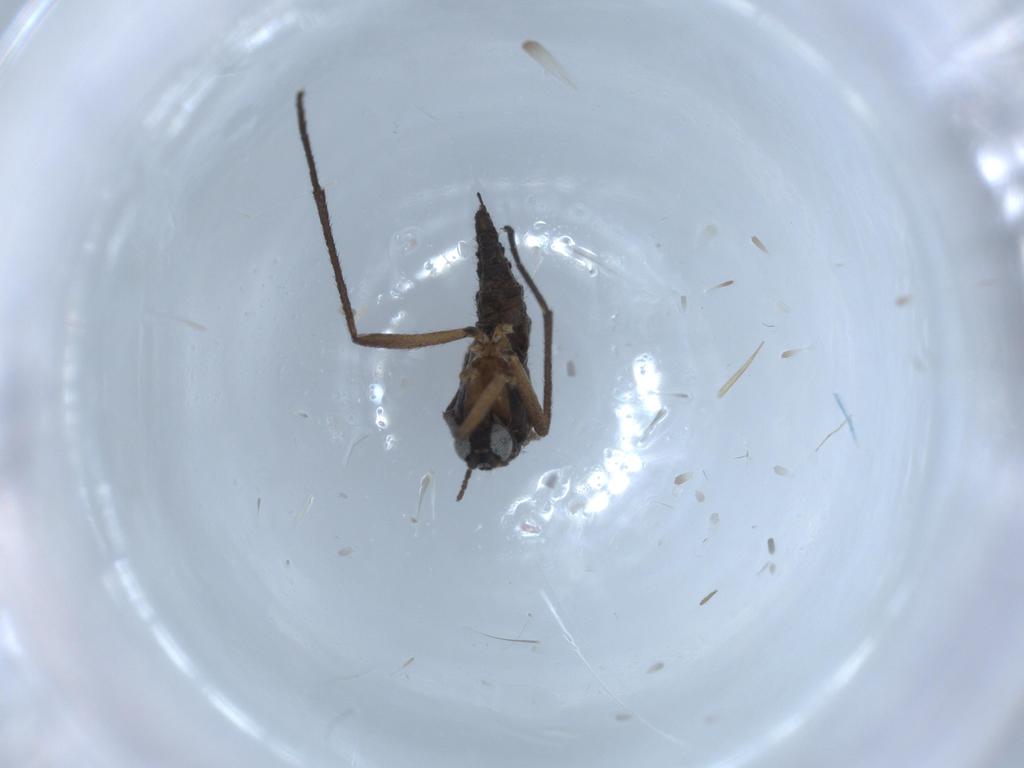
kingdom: Animalia
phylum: Arthropoda
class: Insecta
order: Diptera
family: Sciaridae
